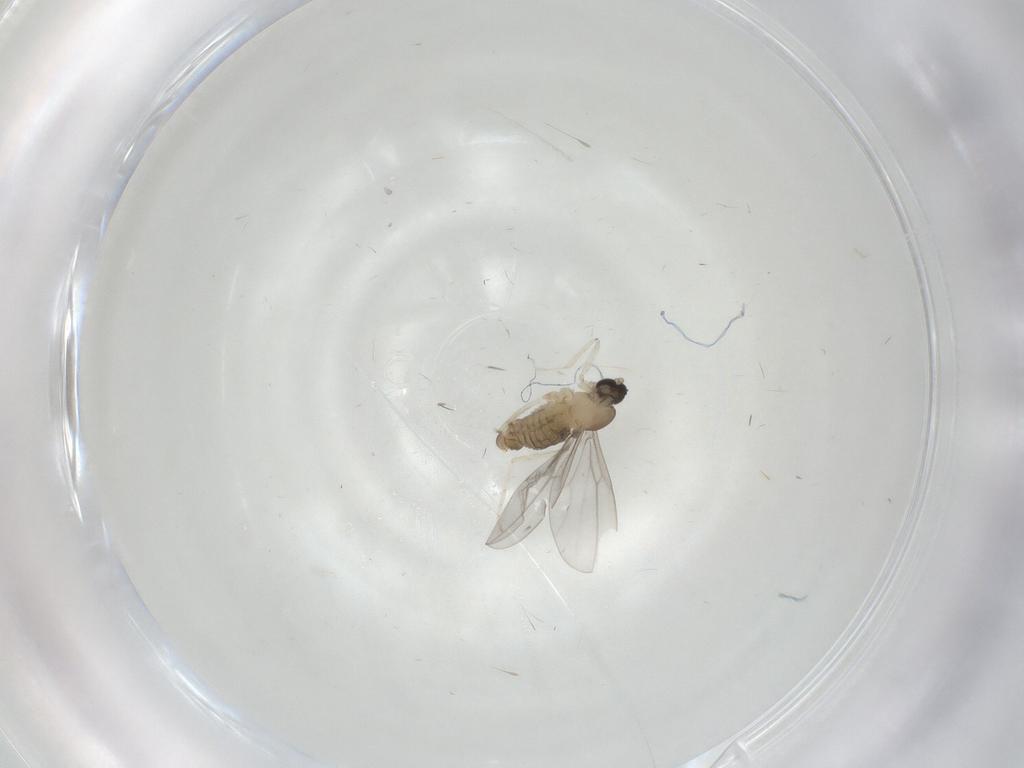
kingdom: Animalia
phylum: Arthropoda
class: Insecta
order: Diptera
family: Cecidomyiidae
